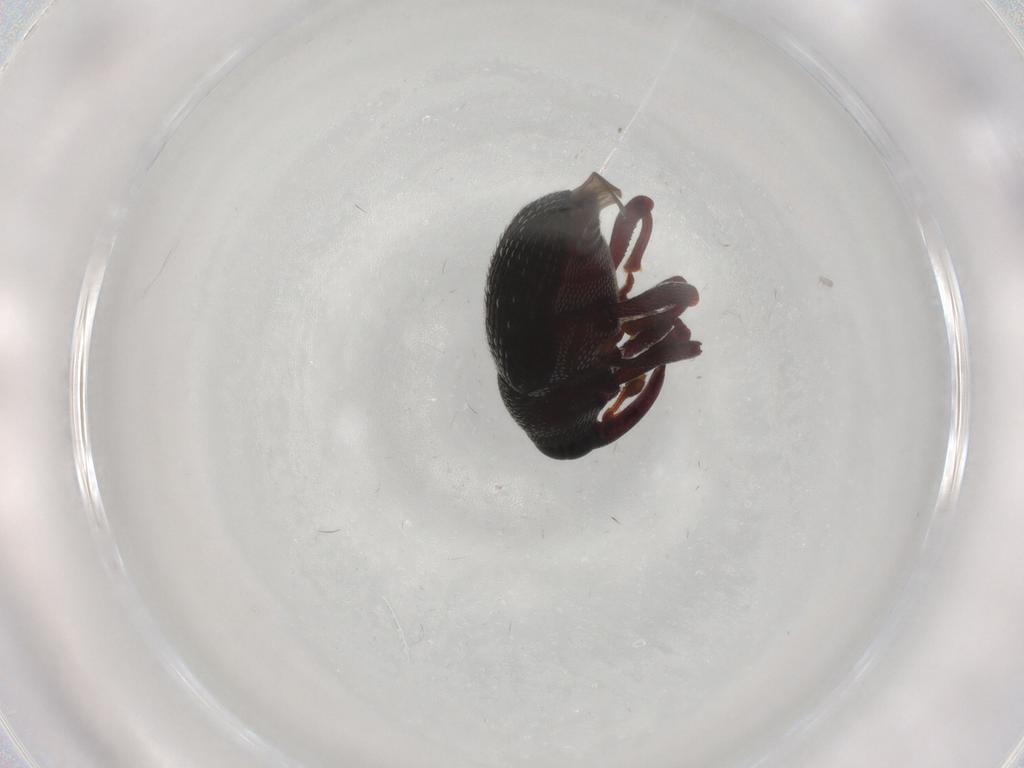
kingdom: Animalia
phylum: Arthropoda
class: Insecta
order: Coleoptera
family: Curculionidae
